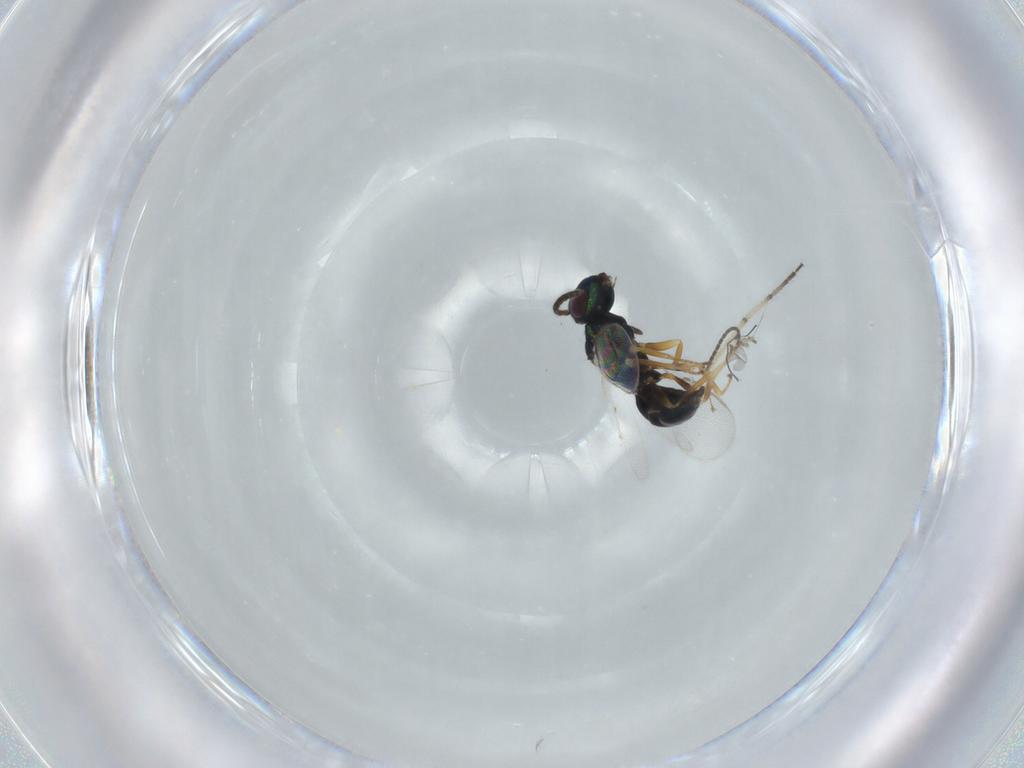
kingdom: Animalia
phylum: Arthropoda
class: Insecta
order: Hymenoptera
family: Pteromalidae
